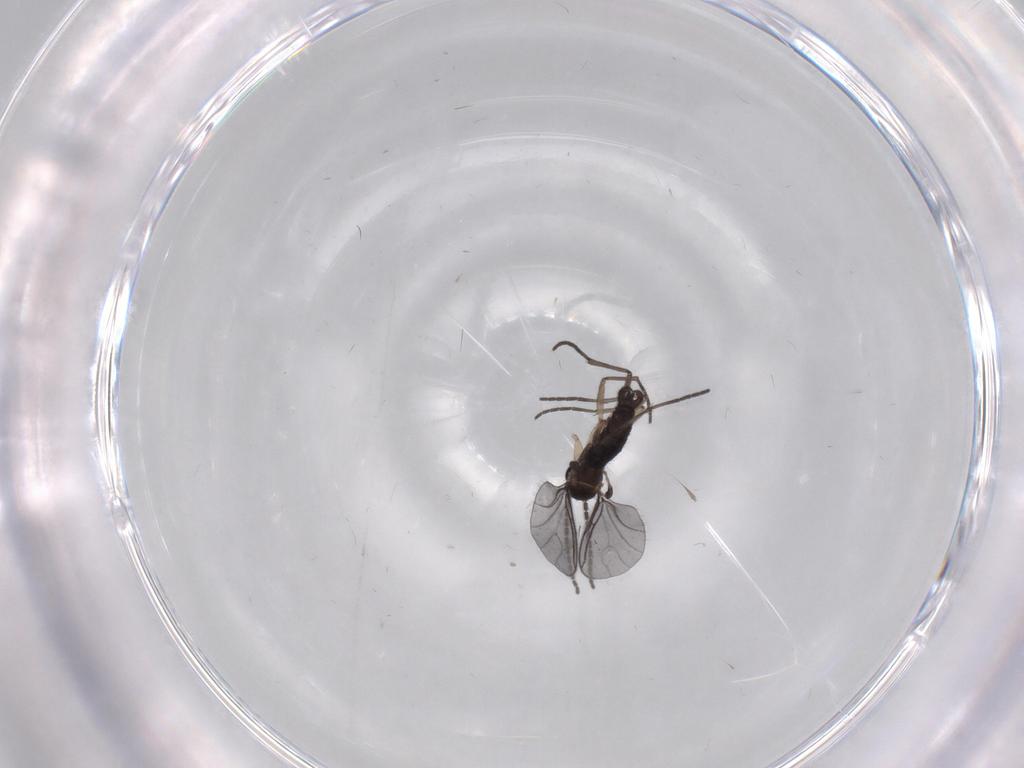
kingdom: Animalia
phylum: Arthropoda
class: Insecta
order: Diptera
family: Sciaridae
